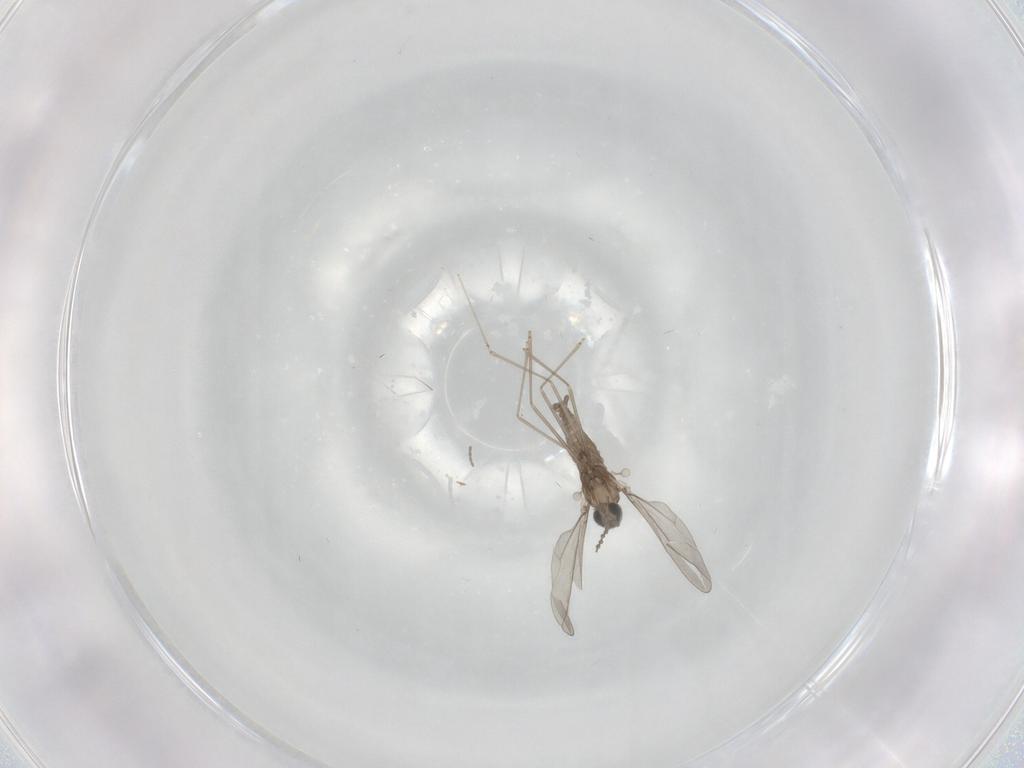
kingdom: Animalia
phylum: Arthropoda
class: Insecta
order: Diptera
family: Cecidomyiidae
